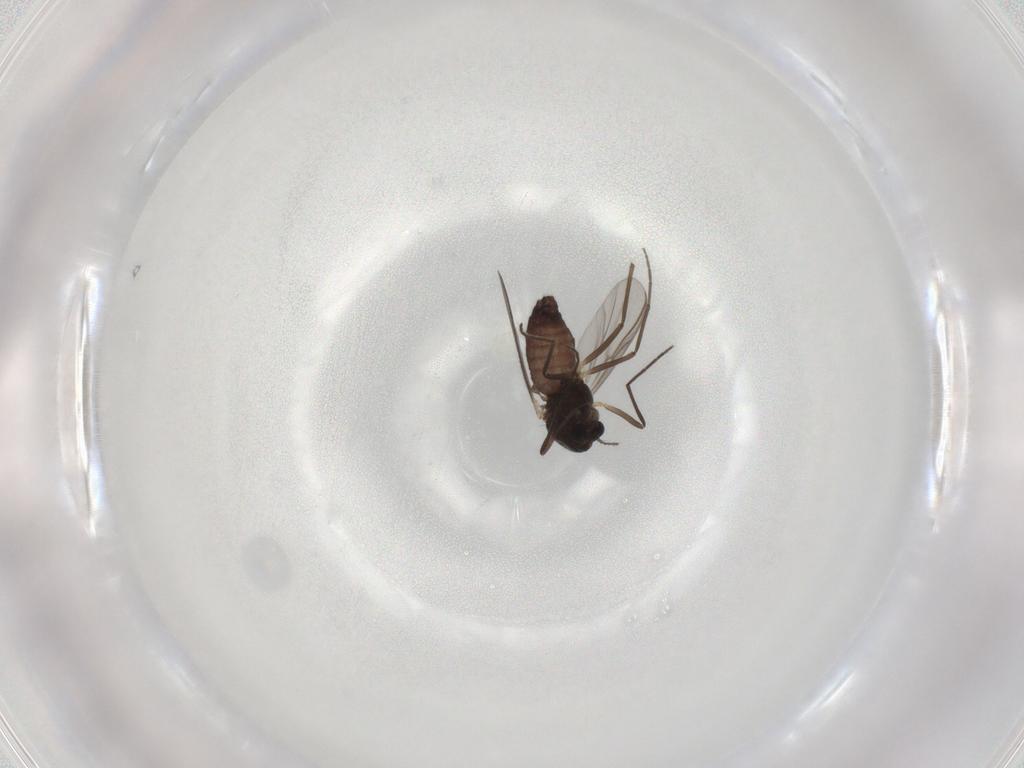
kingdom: Animalia
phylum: Arthropoda
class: Insecta
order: Diptera
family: Chironomidae
